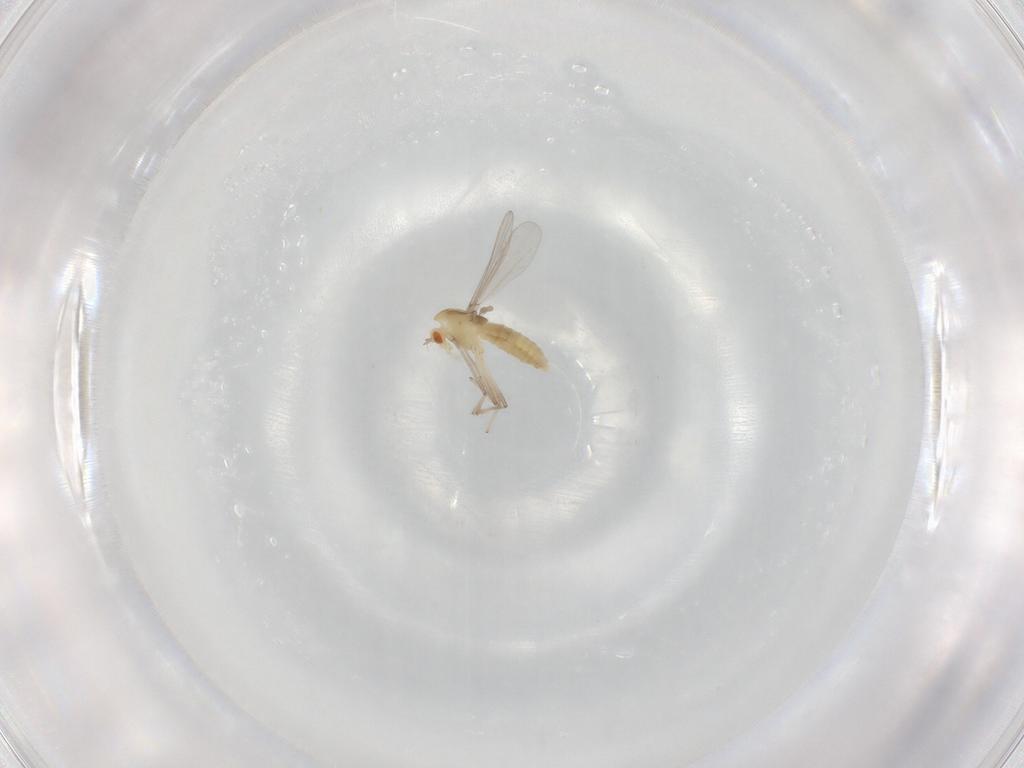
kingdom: Animalia
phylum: Arthropoda
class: Insecta
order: Diptera
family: Chironomidae
